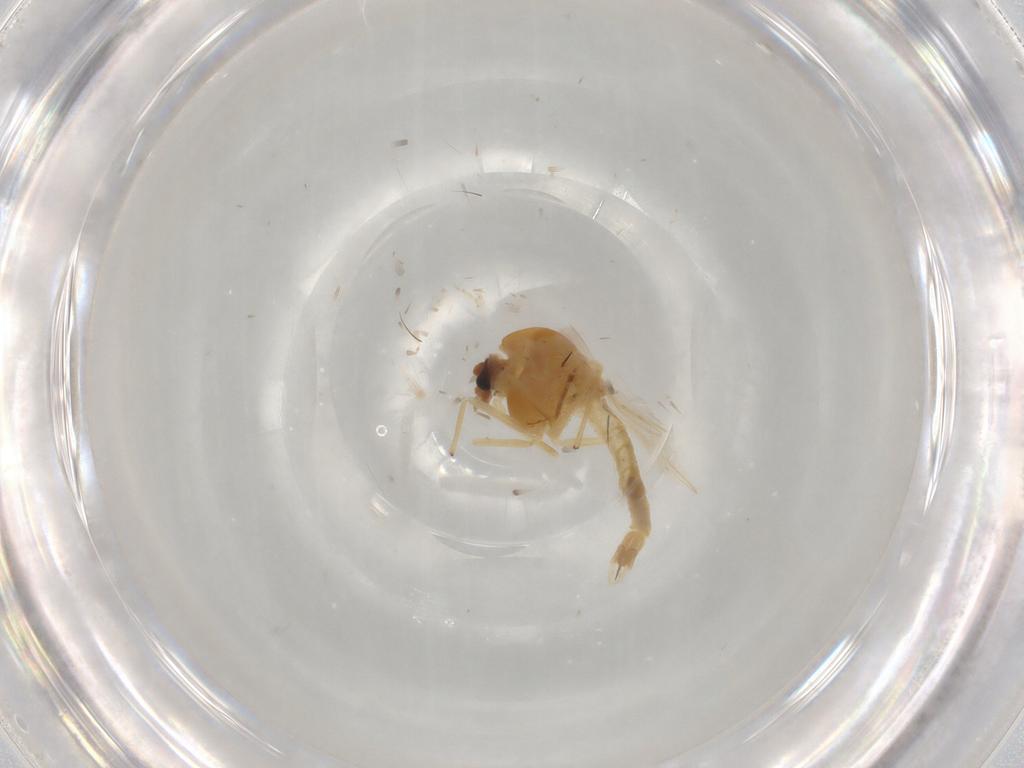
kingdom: Animalia
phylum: Arthropoda
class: Insecta
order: Diptera
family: Chironomidae
